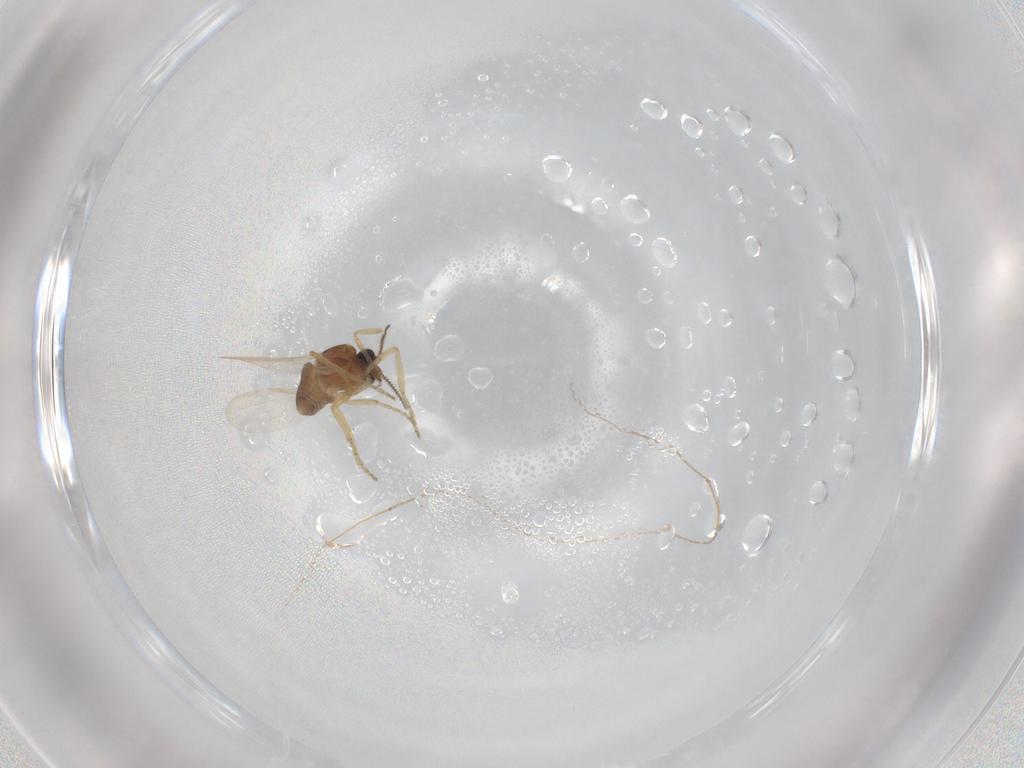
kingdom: Animalia
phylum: Arthropoda
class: Insecta
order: Diptera
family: Ceratopogonidae
